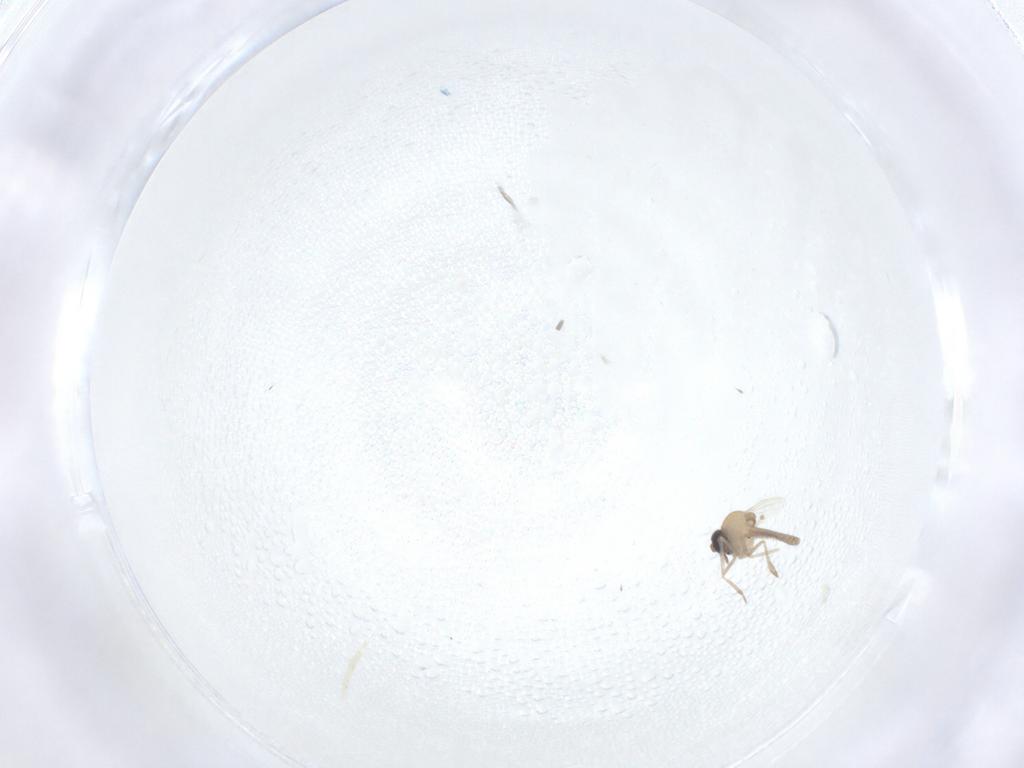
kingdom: Animalia
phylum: Arthropoda
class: Insecta
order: Diptera
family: Ceratopogonidae
